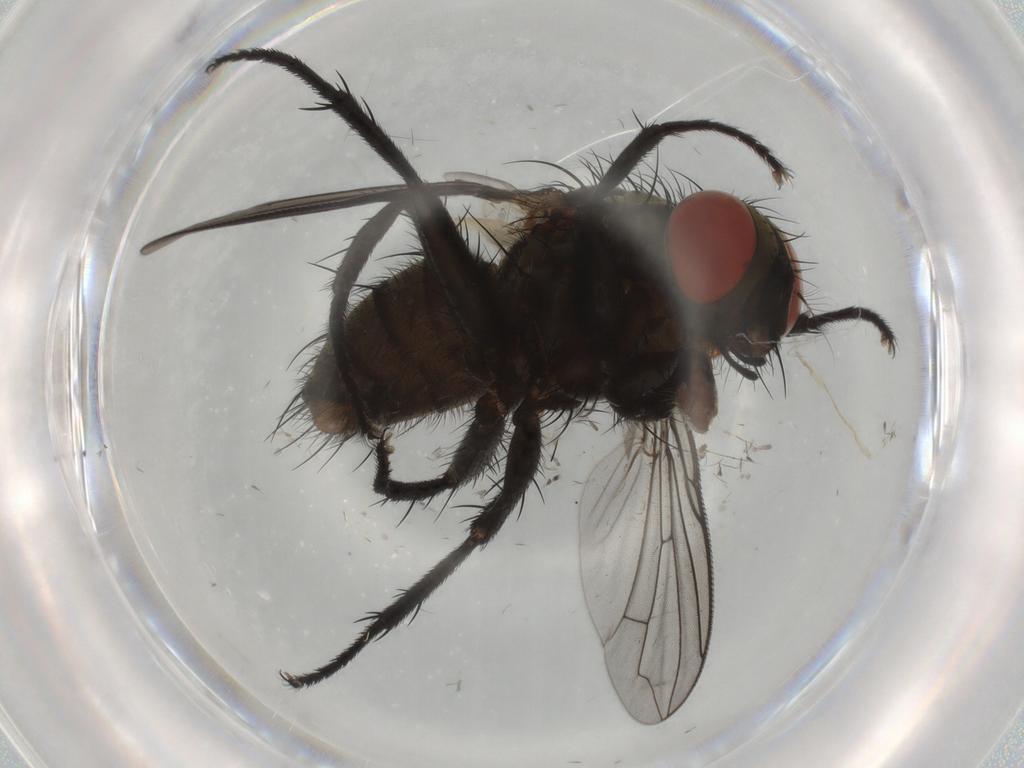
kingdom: Animalia
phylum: Arthropoda
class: Insecta
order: Diptera
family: Sarcophagidae
